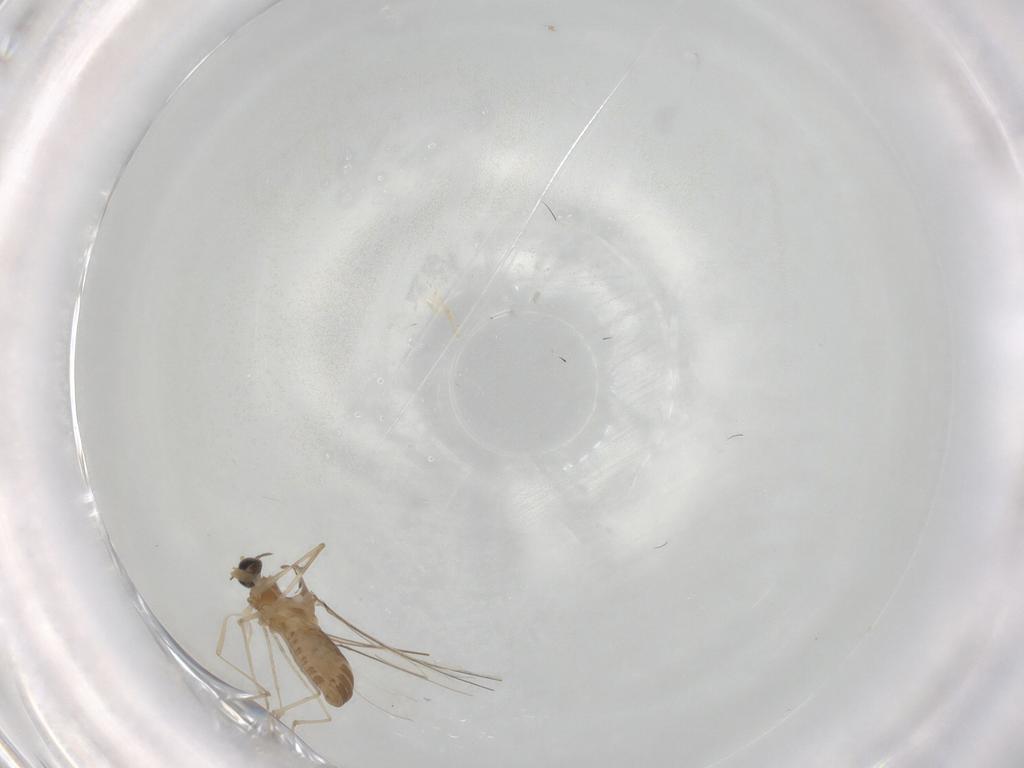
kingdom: Animalia
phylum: Arthropoda
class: Insecta
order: Diptera
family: Cecidomyiidae
